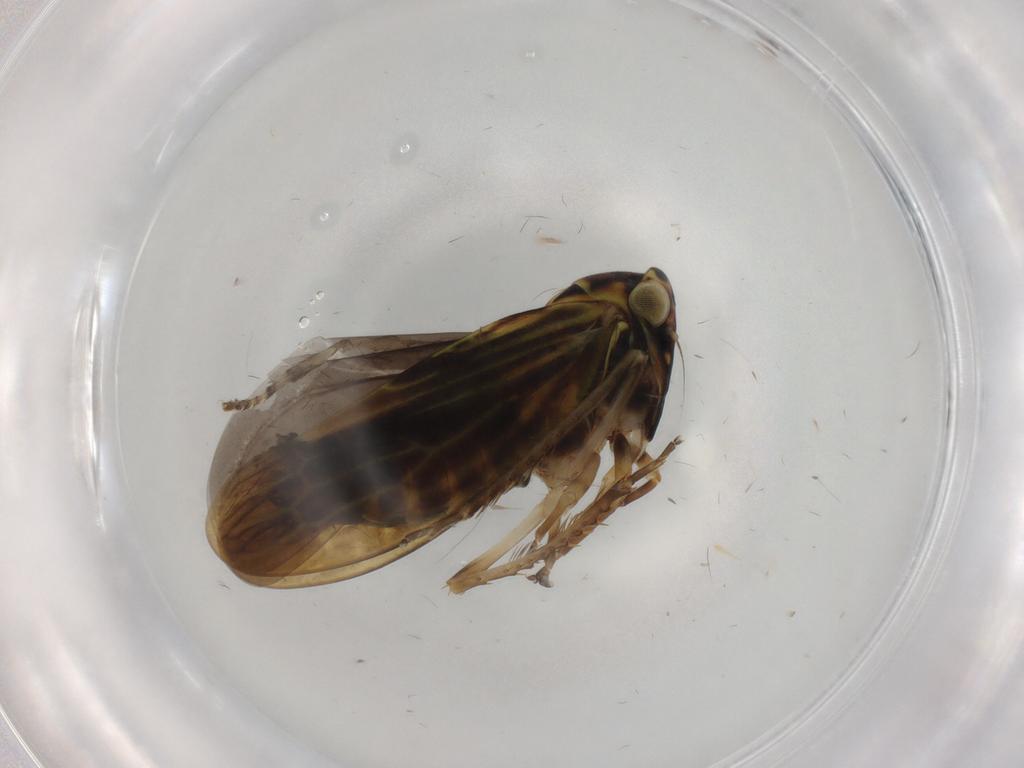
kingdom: Animalia
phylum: Arthropoda
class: Insecta
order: Hemiptera
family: Cicadellidae
